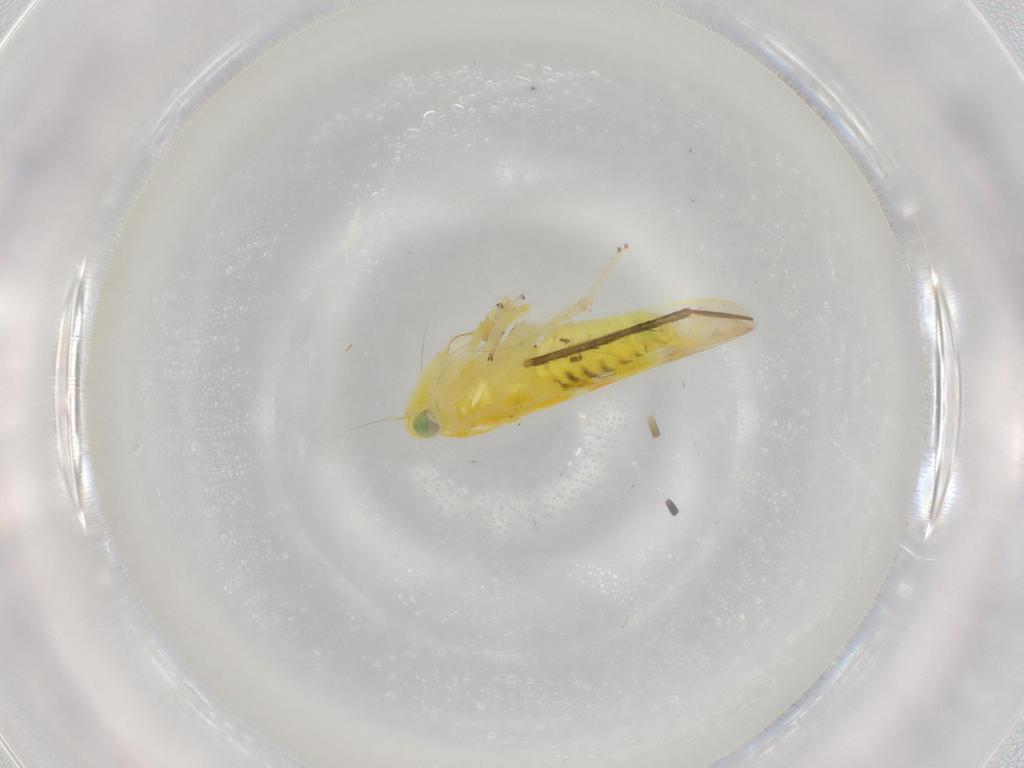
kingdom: Animalia
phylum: Arthropoda
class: Insecta
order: Hemiptera
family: Cicadellidae
